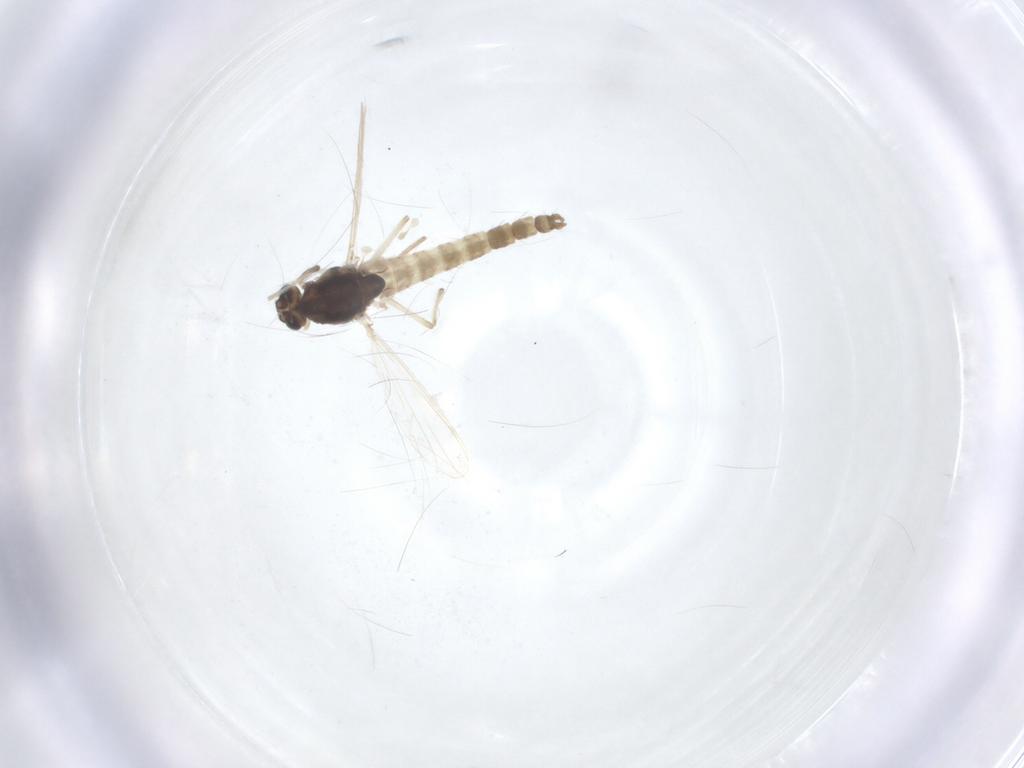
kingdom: Animalia
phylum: Arthropoda
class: Insecta
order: Diptera
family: Chironomidae
